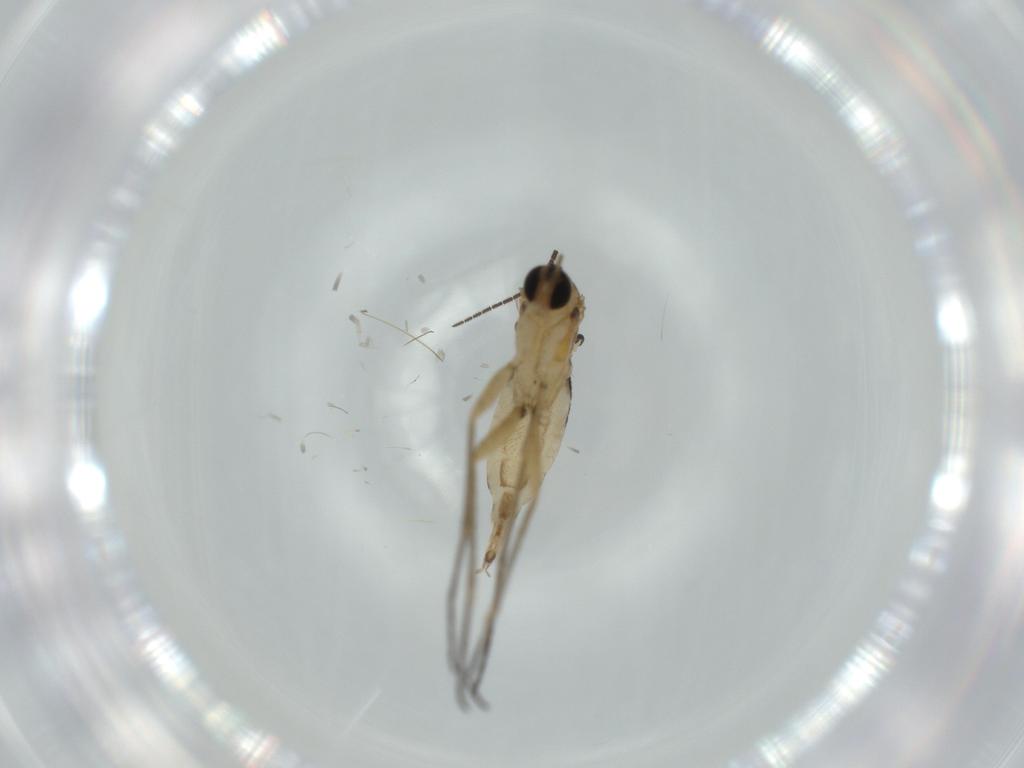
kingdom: Animalia
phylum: Arthropoda
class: Insecta
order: Diptera
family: Sciaridae
